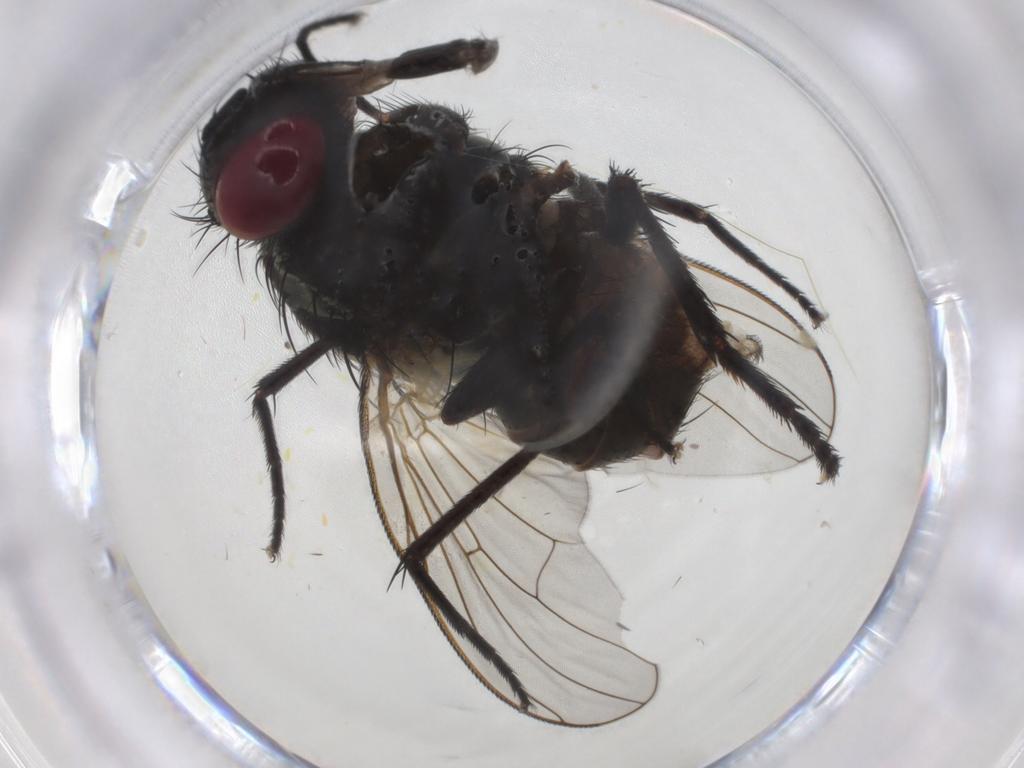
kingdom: Animalia
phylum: Arthropoda
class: Insecta
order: Diptera
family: Muscidae
